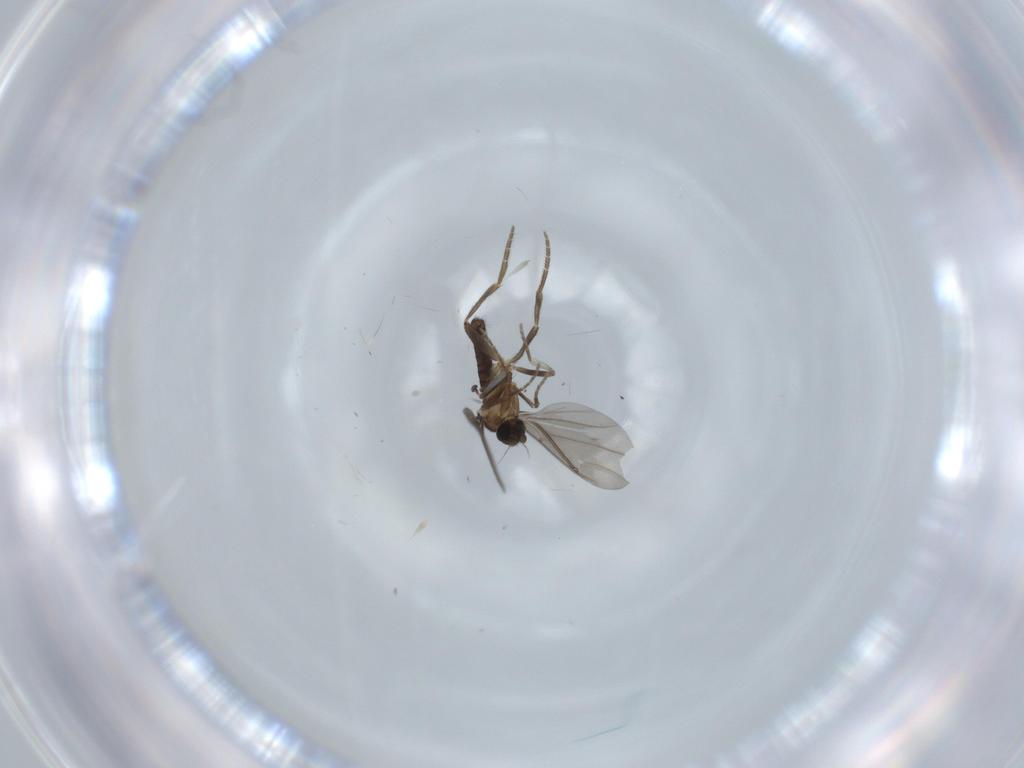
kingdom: Animalia
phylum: Arthropoda
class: Insecta
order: Diptera
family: Phoridae
